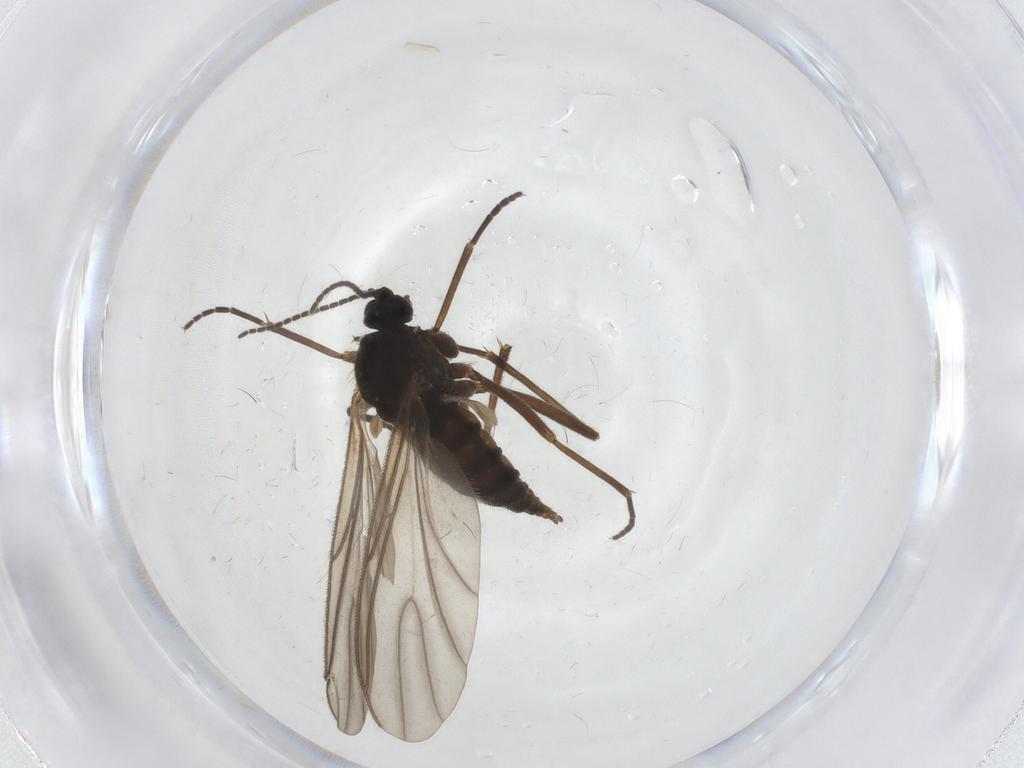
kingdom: Animalia
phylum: Arthropoda
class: Insecta
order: Diptera
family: Sciaridae
